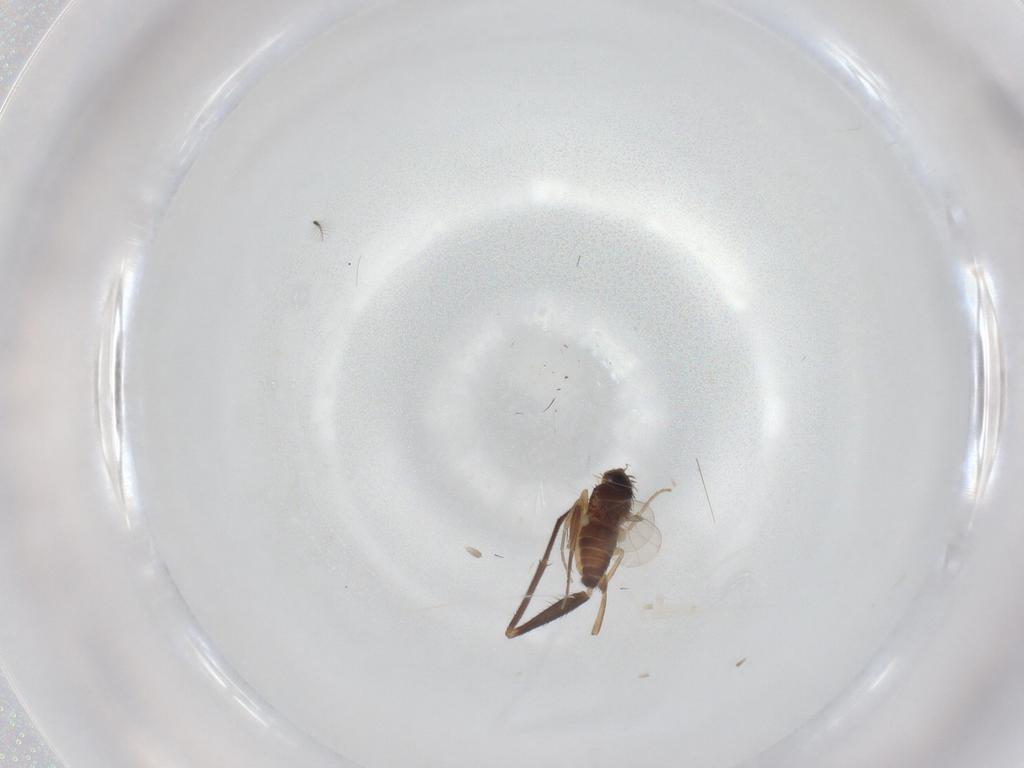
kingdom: Animalia
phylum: Arthropoda
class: Insecta
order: Diptera
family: Phoridae
